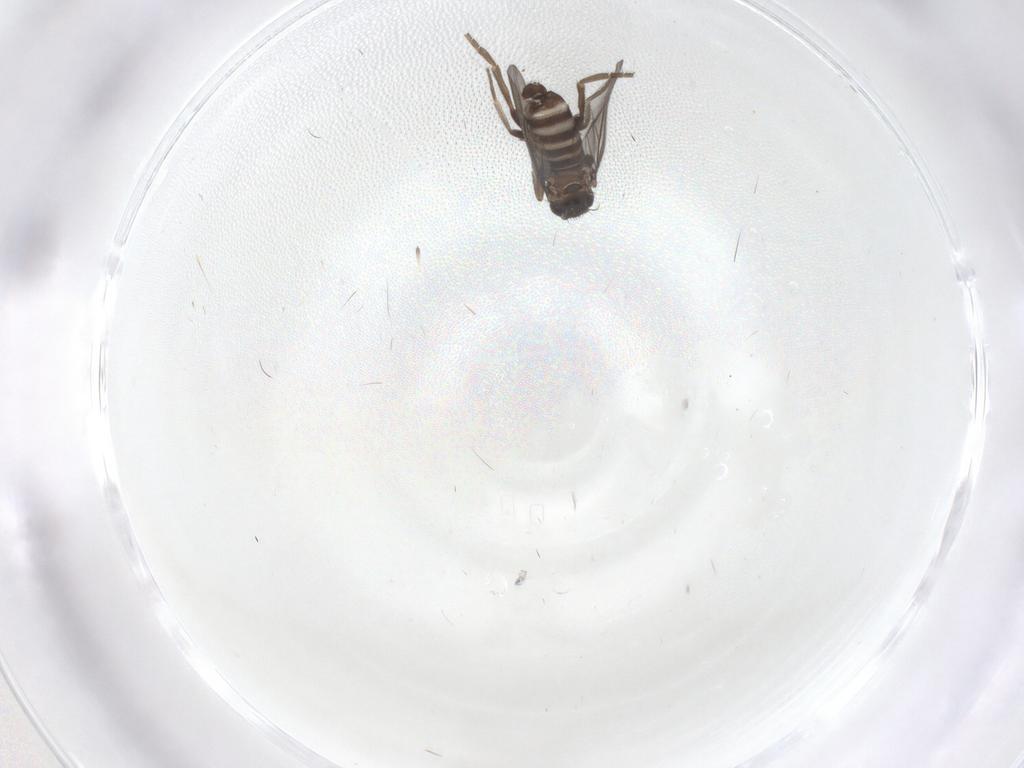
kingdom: Animalia
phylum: Arthropoda
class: Insecta
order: Diptera
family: Phoridae
